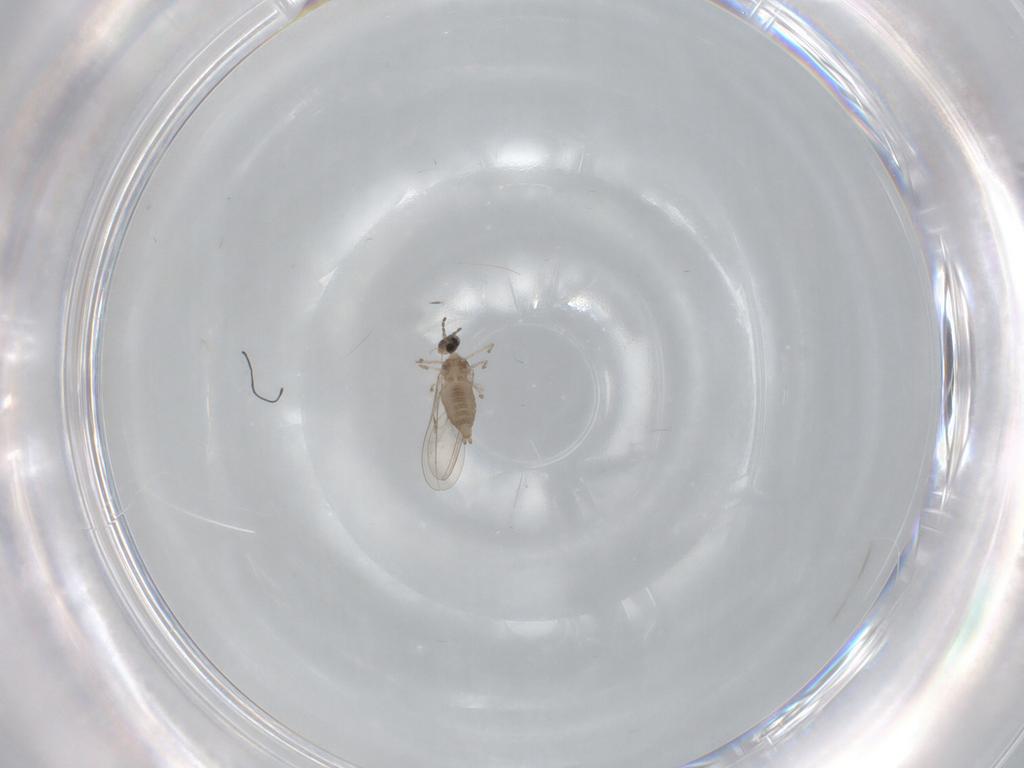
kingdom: Animalia
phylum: Arthropoda
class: Insecta
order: Diptera
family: Cecidomyiidae
